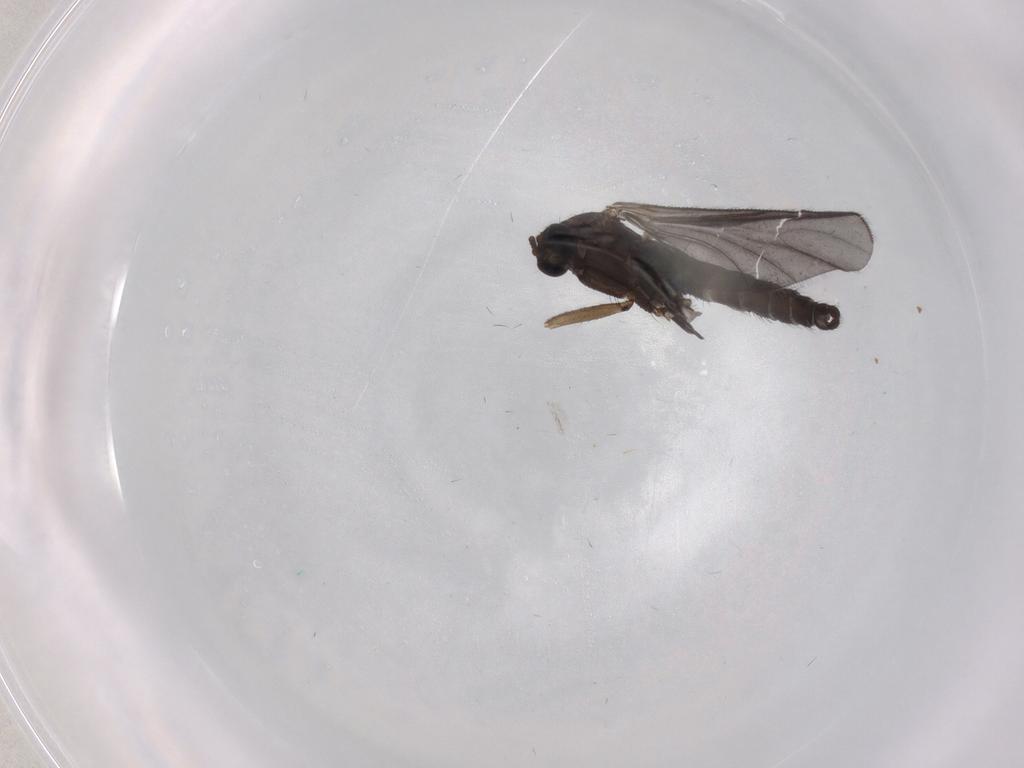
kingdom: Animalia
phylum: Arthropoda
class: Insecta
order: Diptera
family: Sciaridae
